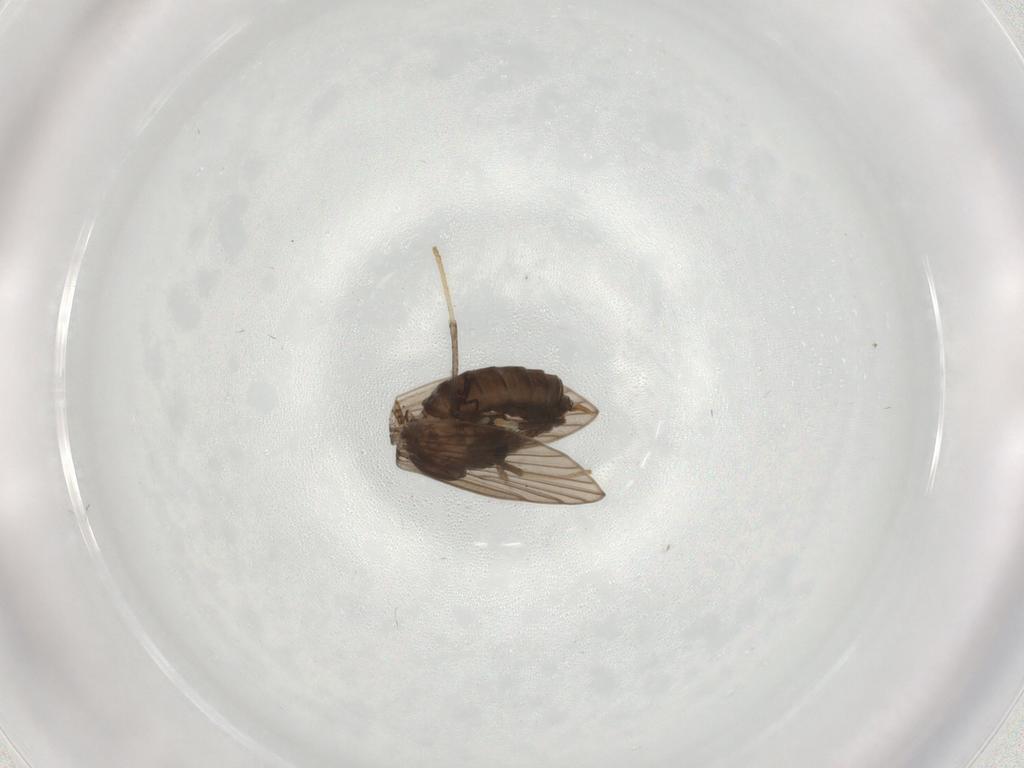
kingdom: Animalia
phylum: Arthropoda
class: Insecta
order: Diptera
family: Psychodidae
